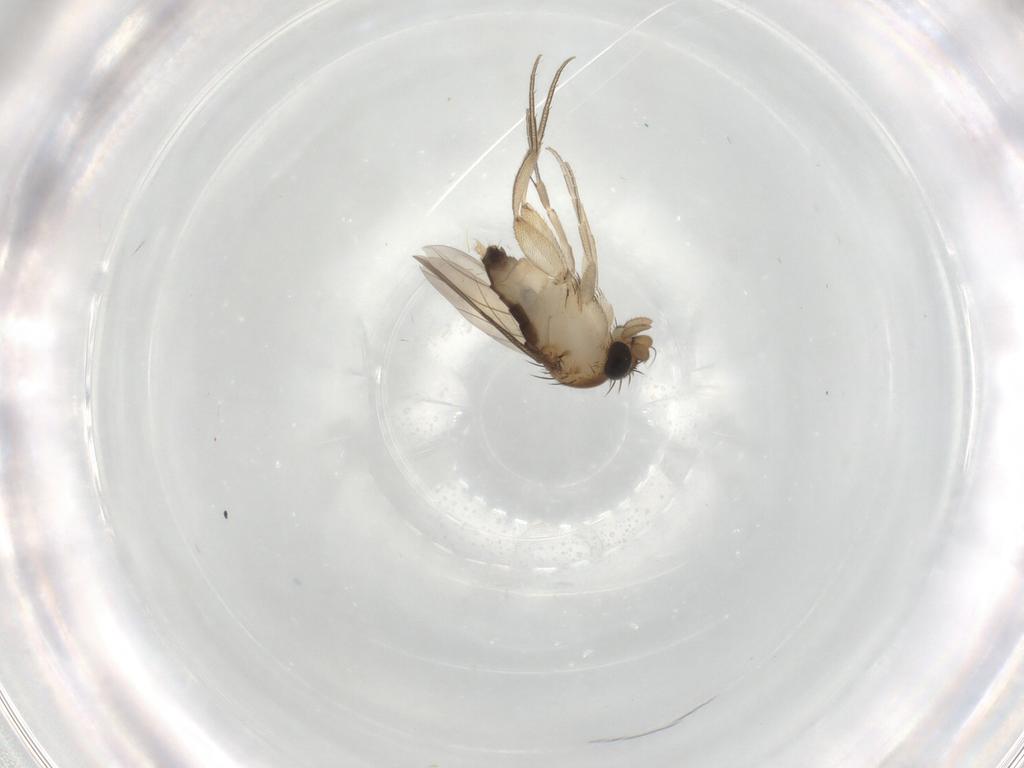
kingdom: Animalia
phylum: Arthropoda
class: Insecta
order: Diptera
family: Phoridae
